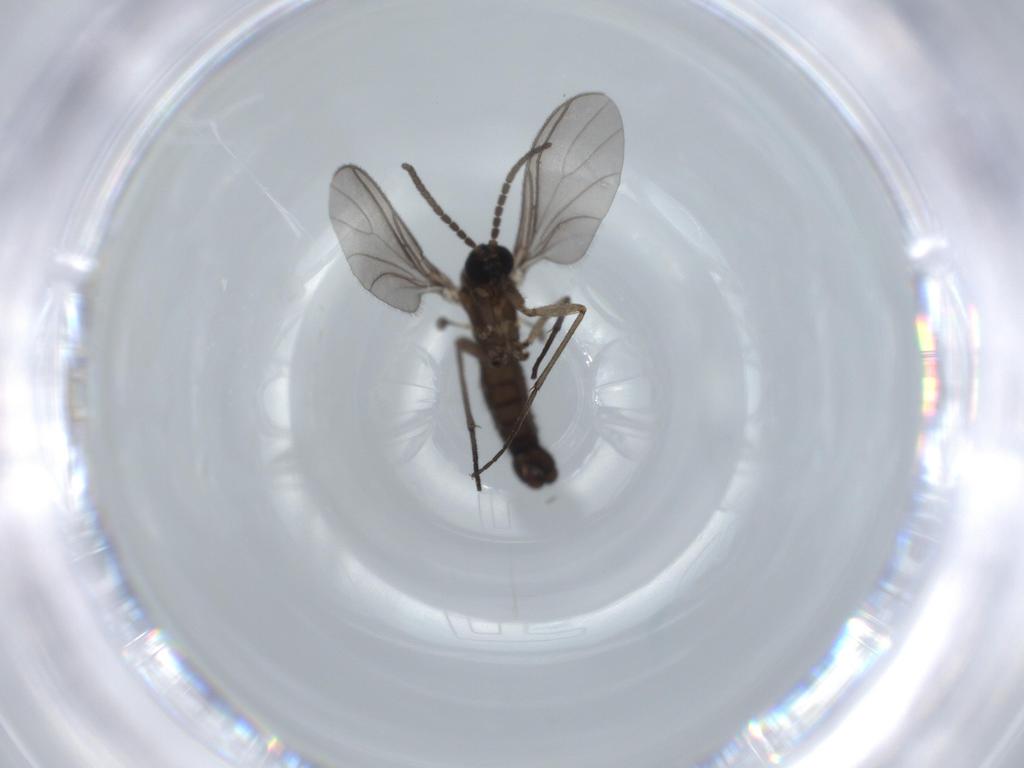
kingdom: Animalia
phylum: Arthropoda
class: Insecta
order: Diptera
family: Sciaridae
